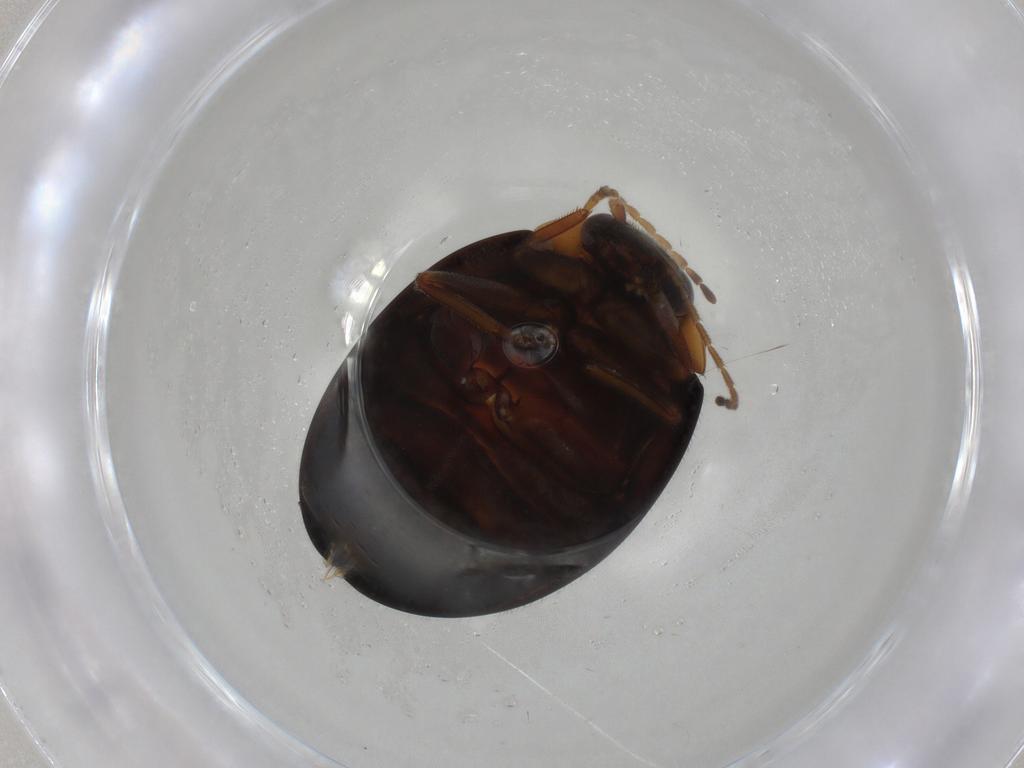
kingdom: Animalia
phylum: Arthropoda
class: Insecta
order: Coleoptera
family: Scirtidae
